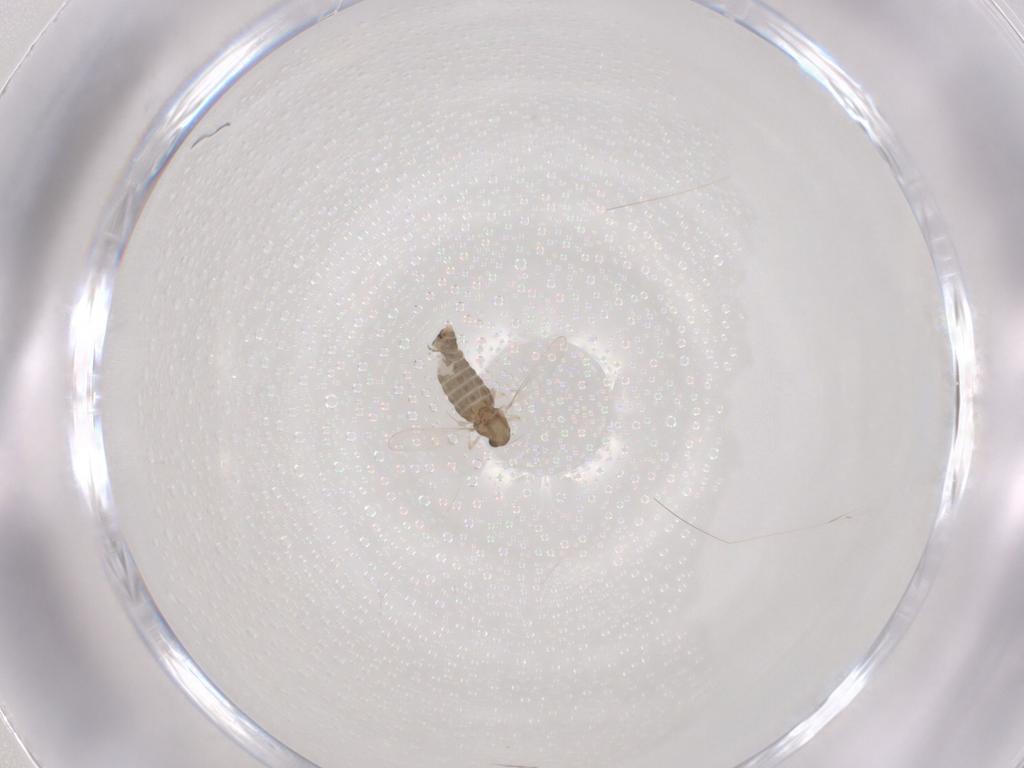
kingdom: Animalia
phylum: Arthropoda
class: Insecta
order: Diptera
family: Chironomidae
